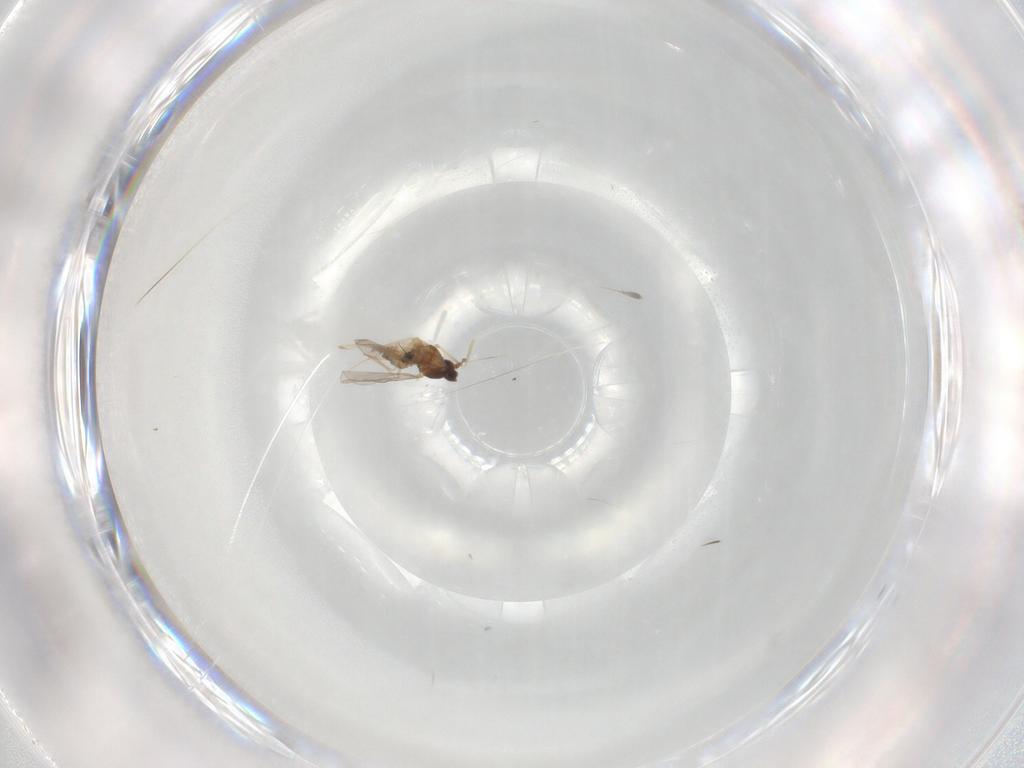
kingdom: Animalia
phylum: Arthropoda
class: Insecta
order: Diptera
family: Cecidomyiidae
